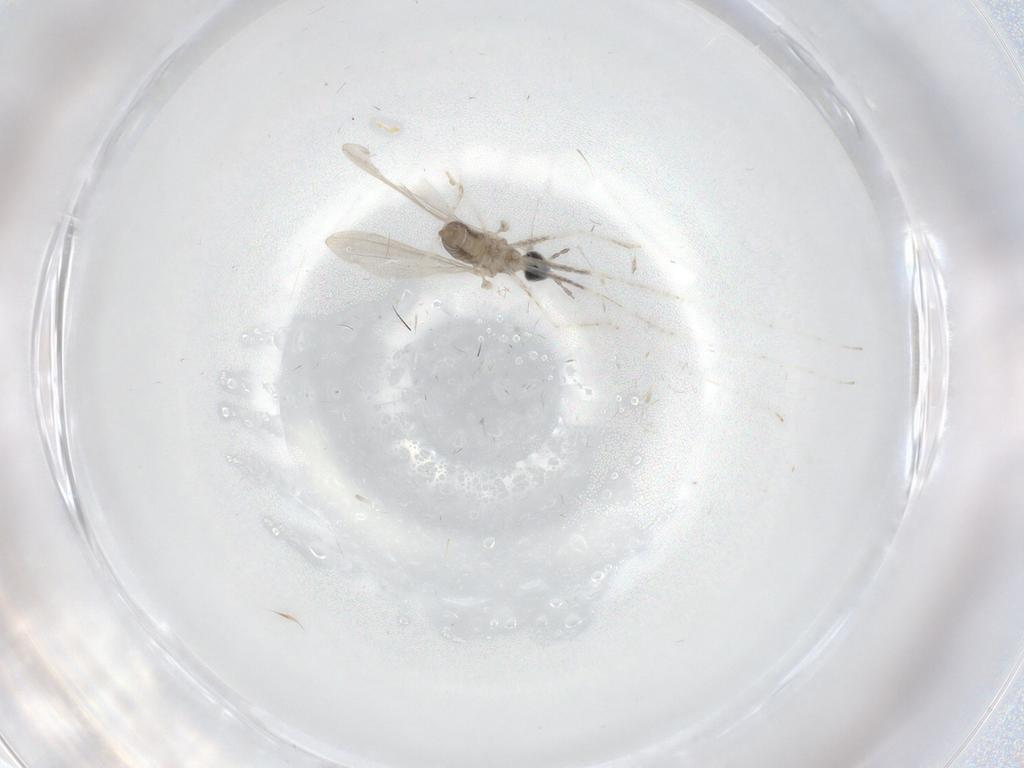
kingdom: Animalia
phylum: Arthropoda
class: Insecta
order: Diptera
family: Cecidomyiidae
